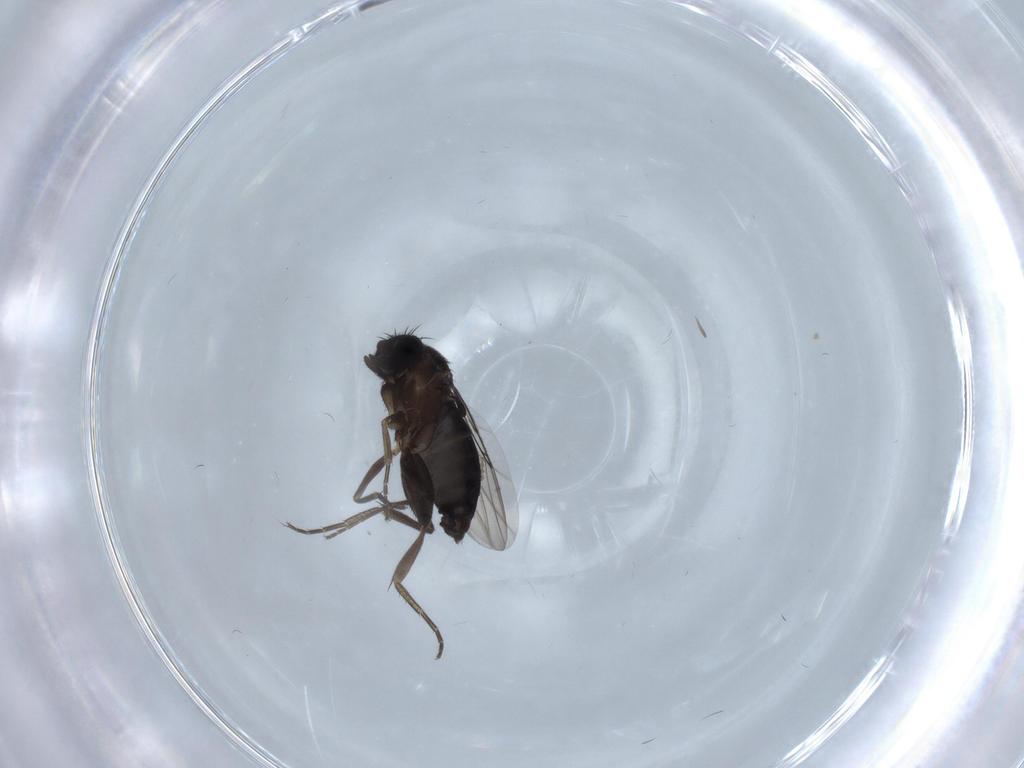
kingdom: Animalia
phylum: Arthropoda
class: Insecta
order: Diptera
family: Phoridae
